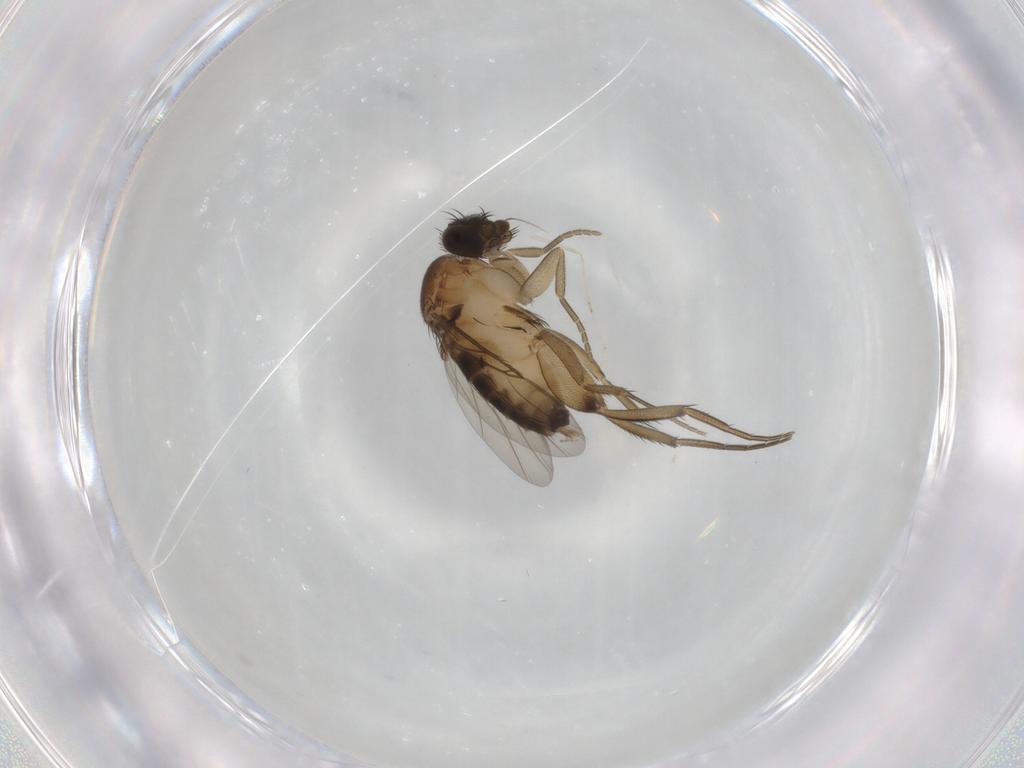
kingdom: Animalia
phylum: Arthropoda
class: Insecta
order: Diptera
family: Phoridae
